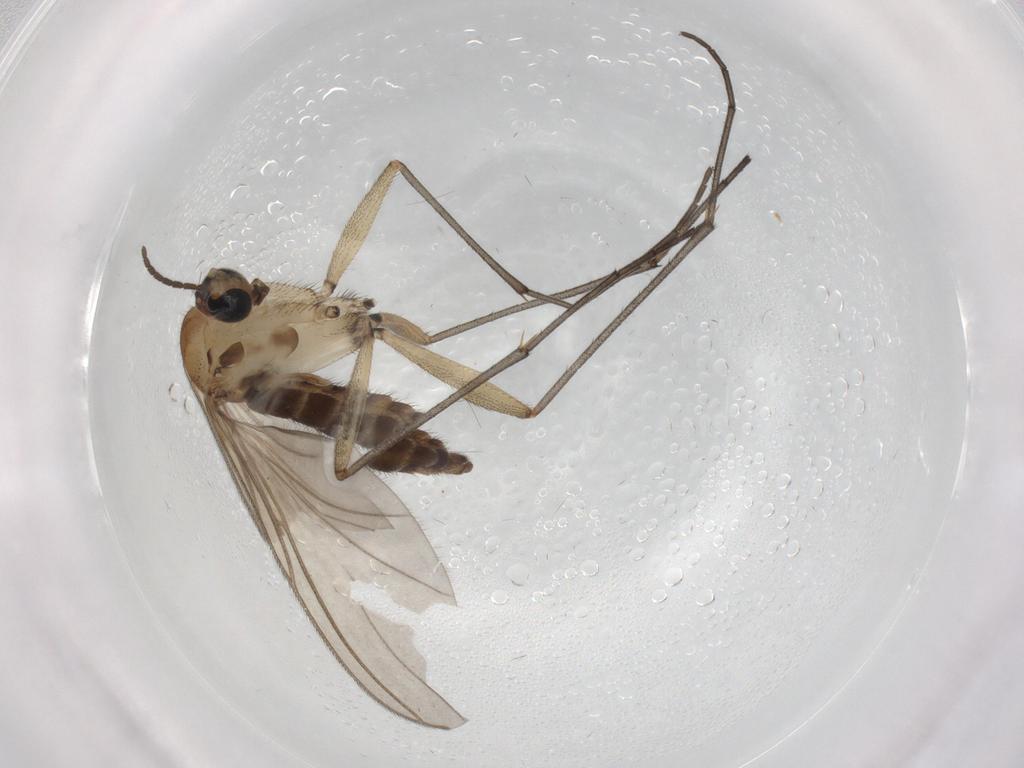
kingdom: Animalia
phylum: Arthropoda
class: Insecta
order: Diptera
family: Sciaridae
